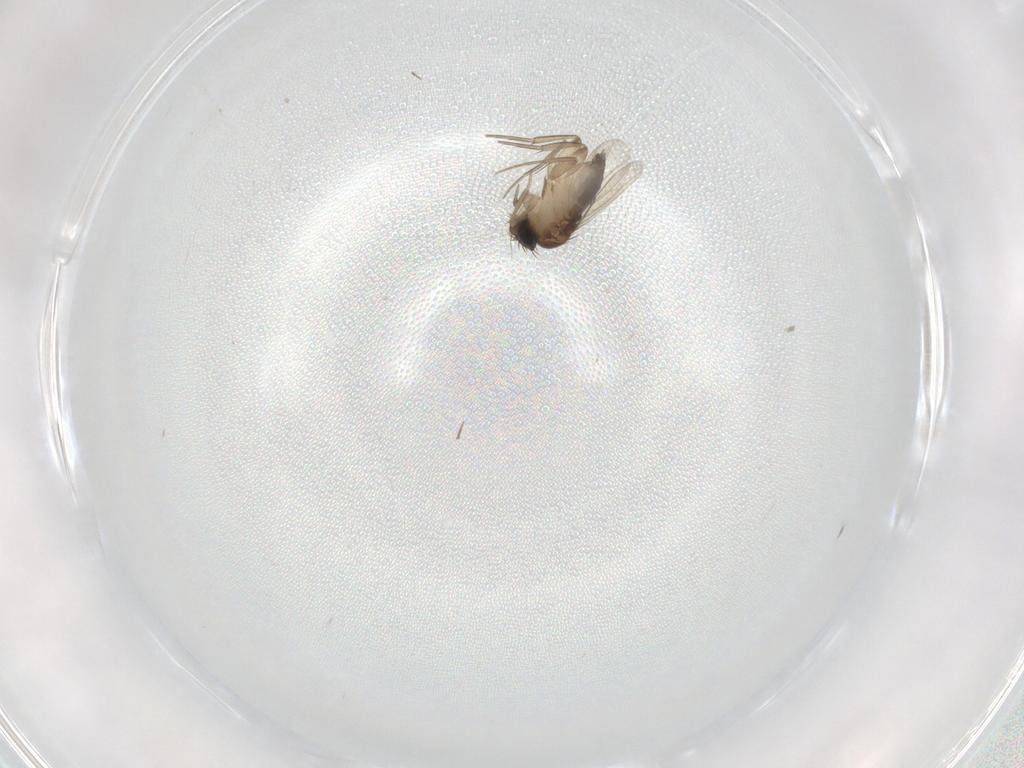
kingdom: Animalia
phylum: Arthropoda
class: Insecta
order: Diptera
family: Phoridae
